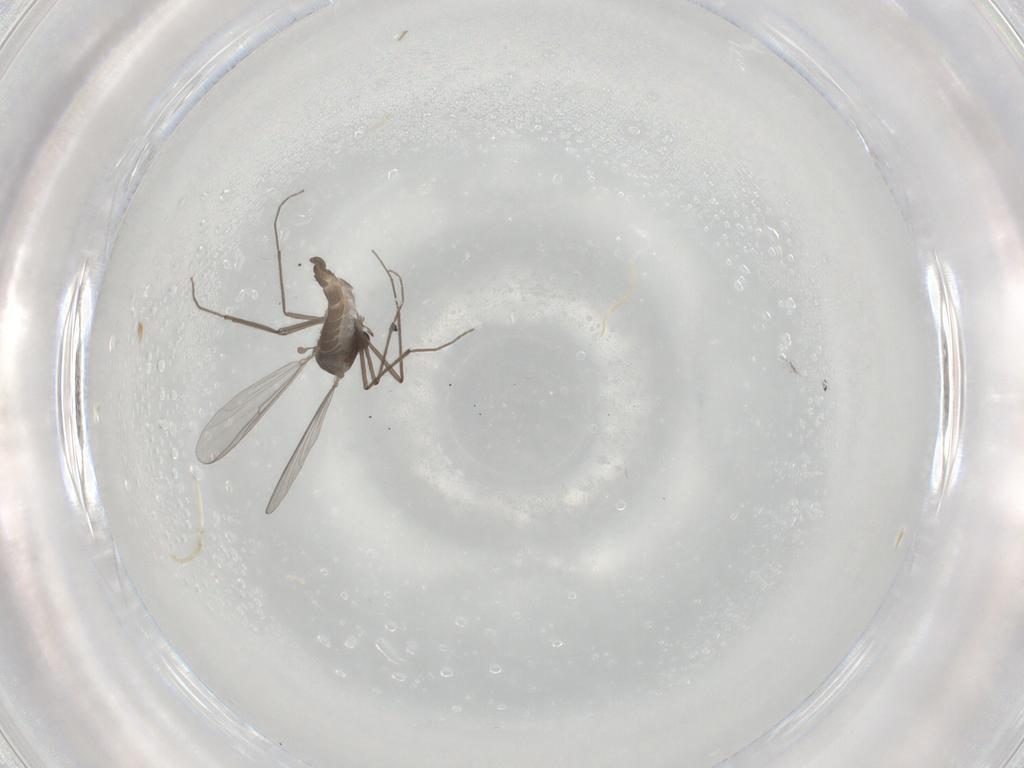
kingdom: Animalia
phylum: Arthropoda
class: Insecta
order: Diptera
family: Chironomidae
